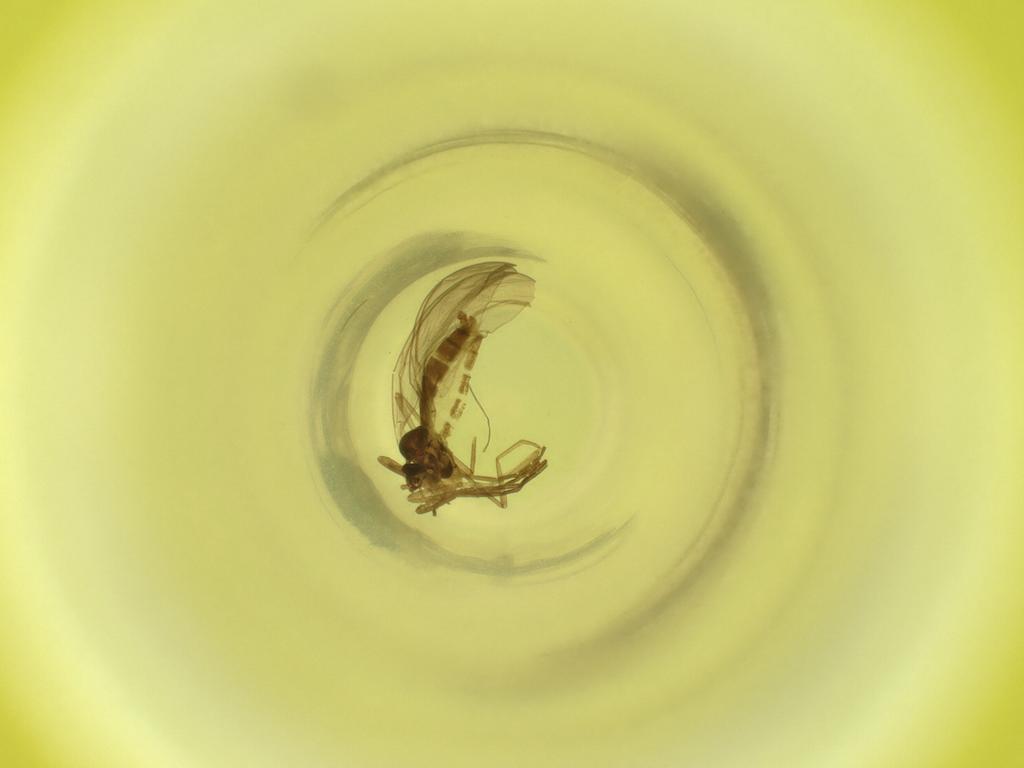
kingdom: Animalia
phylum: Arthropoda
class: Insecta
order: Diptera
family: Cecidomyiidae
